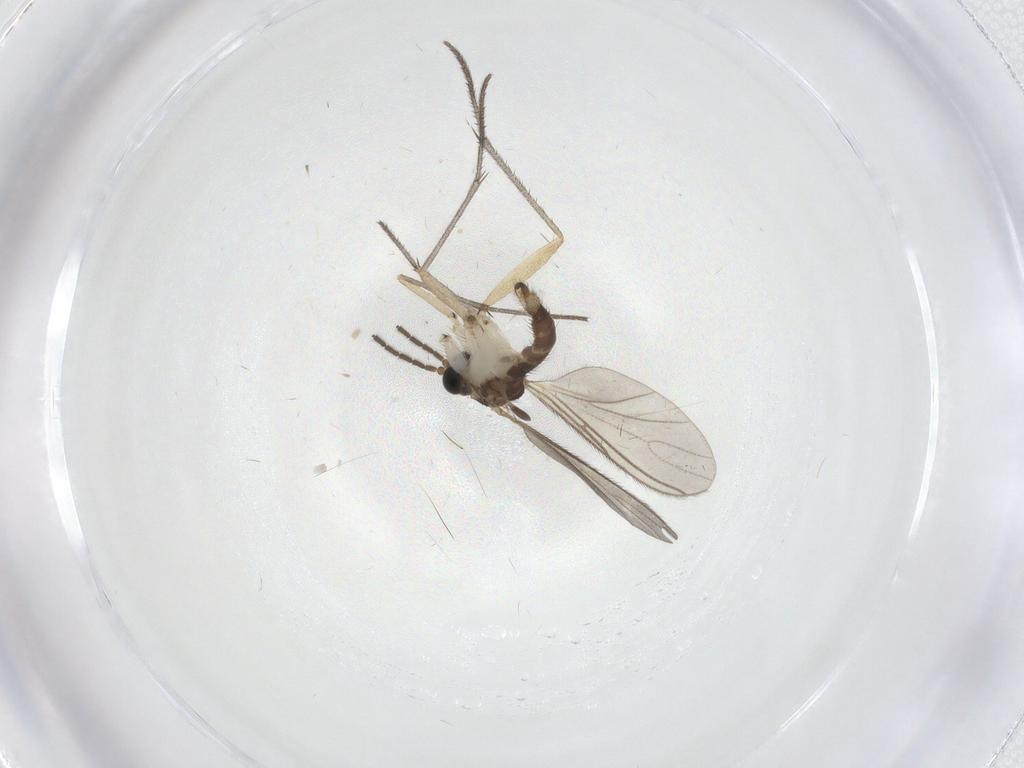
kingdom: Animalia
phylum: Arthropoda
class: Insecta
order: Diptera
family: Chironomidae
